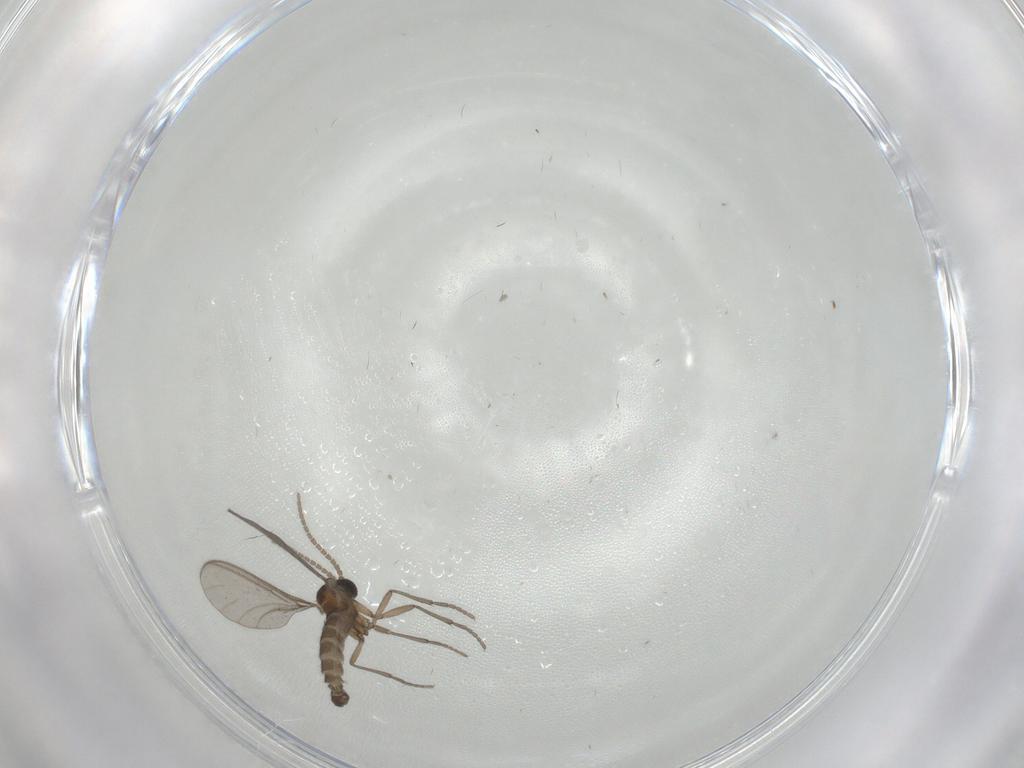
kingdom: Animalia
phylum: Arthropoda
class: Insecta
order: Diptera
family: Sciaridae
